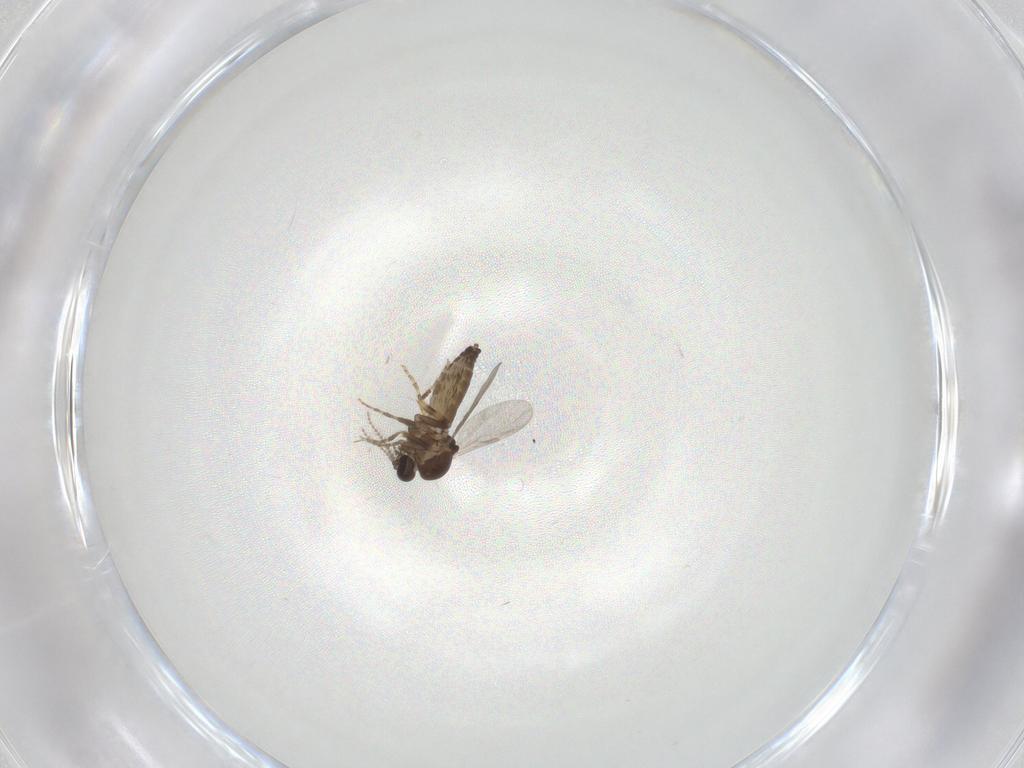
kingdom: Animalia
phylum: Arthropoda
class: Insecta
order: Diptera
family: Ceratopogonidae
